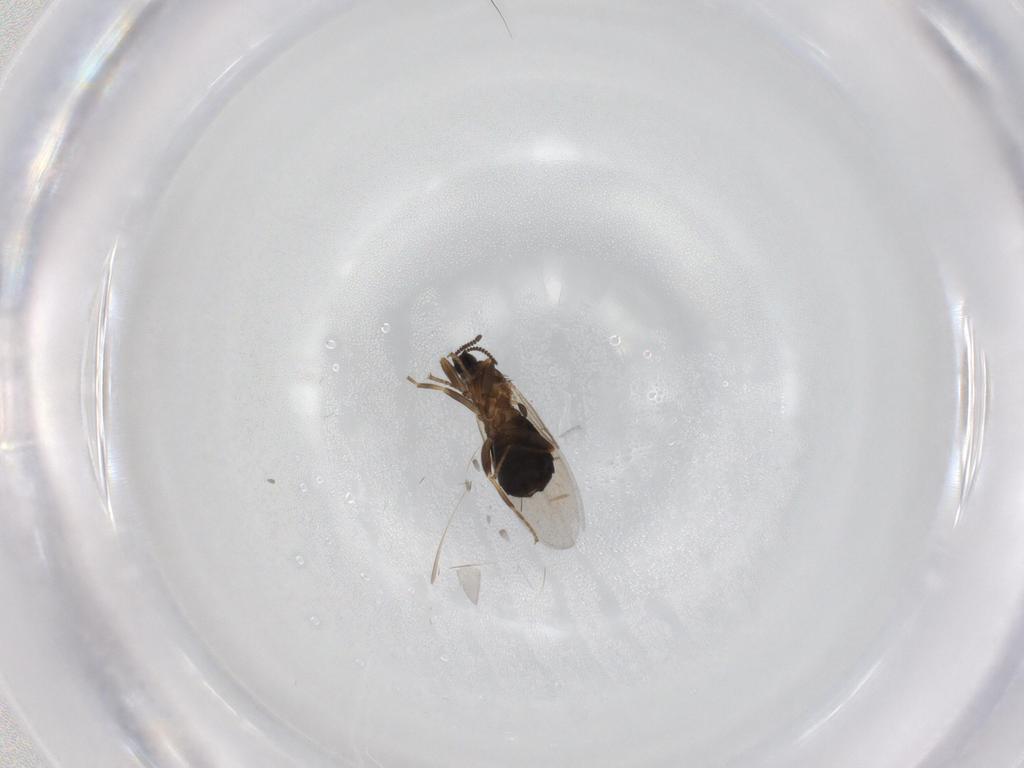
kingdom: Animalia
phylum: Arthropoda
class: Insecta
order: Diptera
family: Scatopsidae
